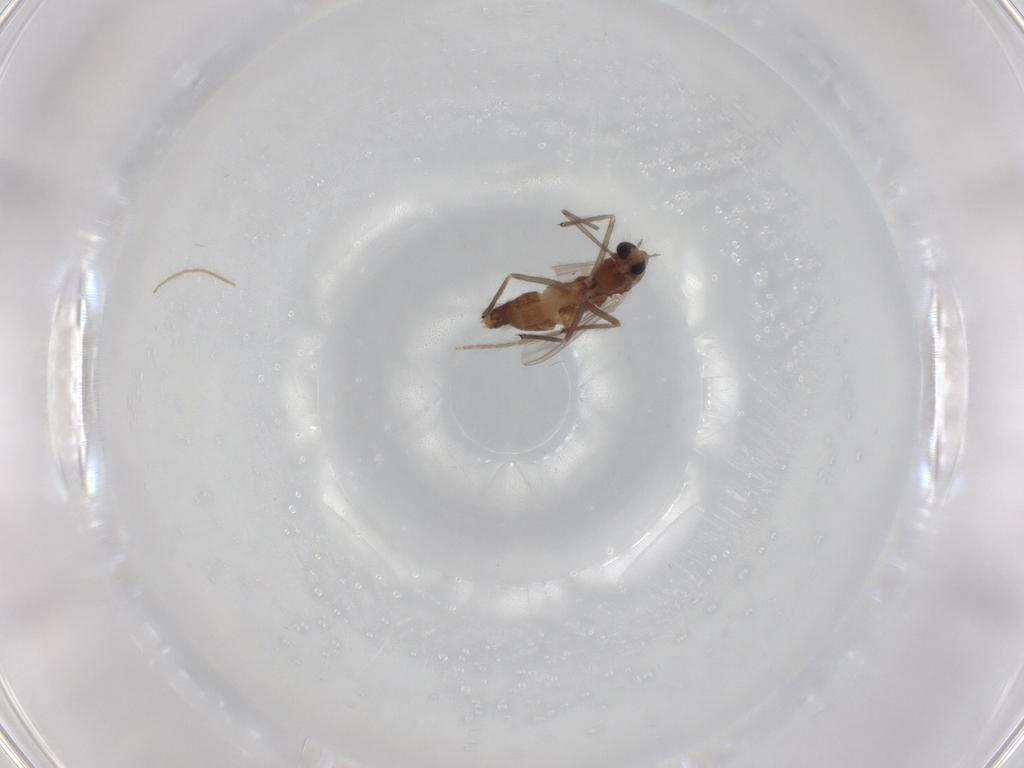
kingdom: Animalia
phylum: Arthropoda
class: Insecta
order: Diptera
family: Chironomidae
